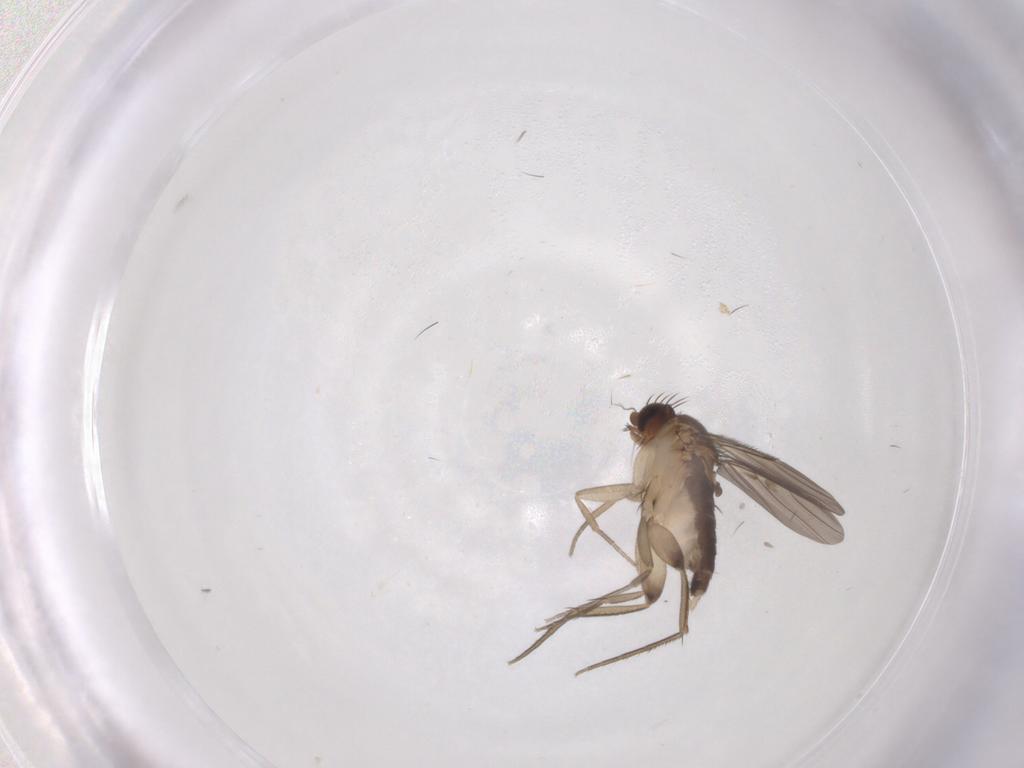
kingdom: Animalia
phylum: Arthropoda
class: Insecta
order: Diptera
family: Phoridae
